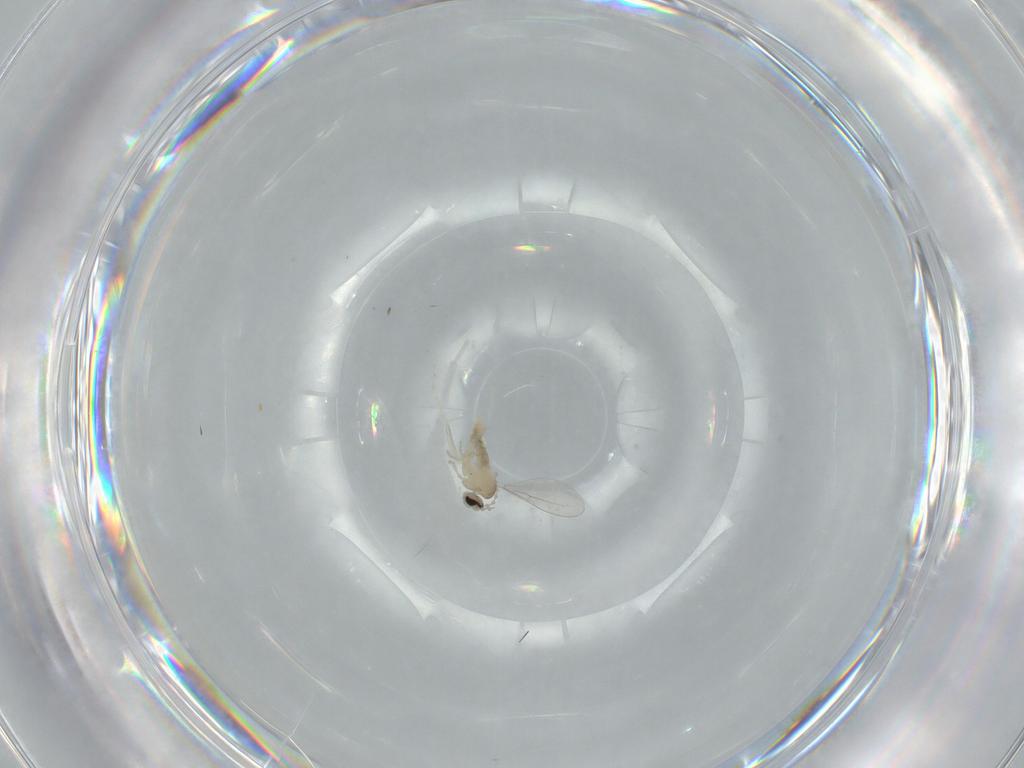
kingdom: Animalia
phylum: Arthropoda
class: Insecta
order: Diptera
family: Cecidomyiidae
